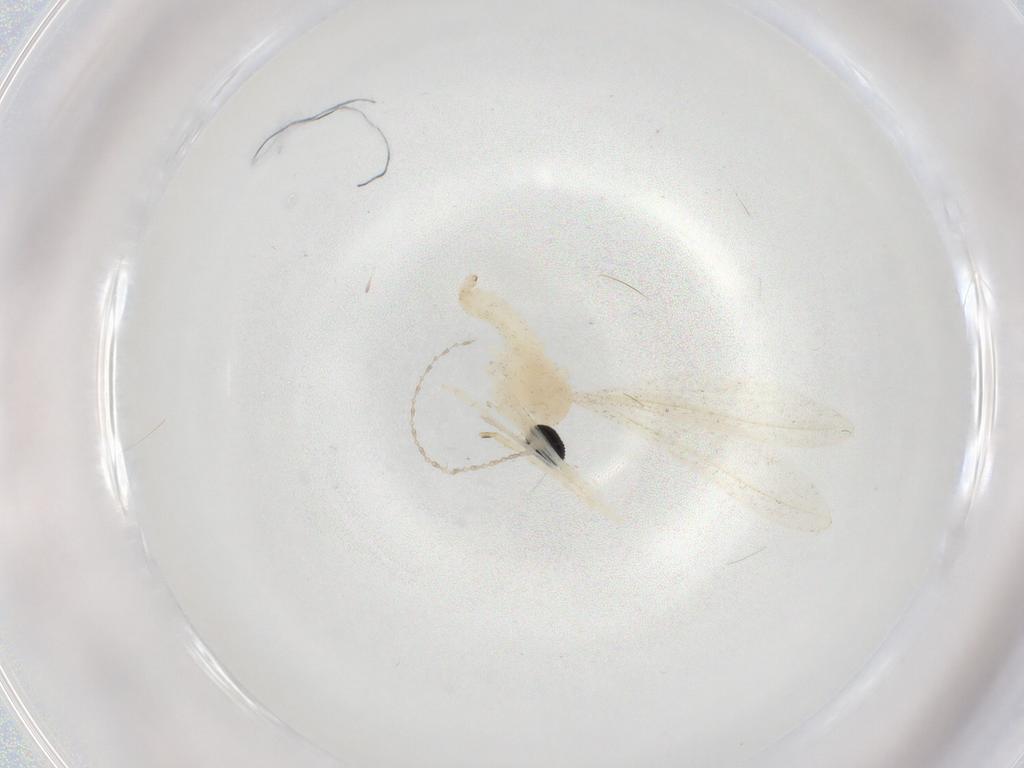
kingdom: Animalia
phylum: Arthropoda
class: Insecta
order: Diptera
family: Cecidomyiidae
